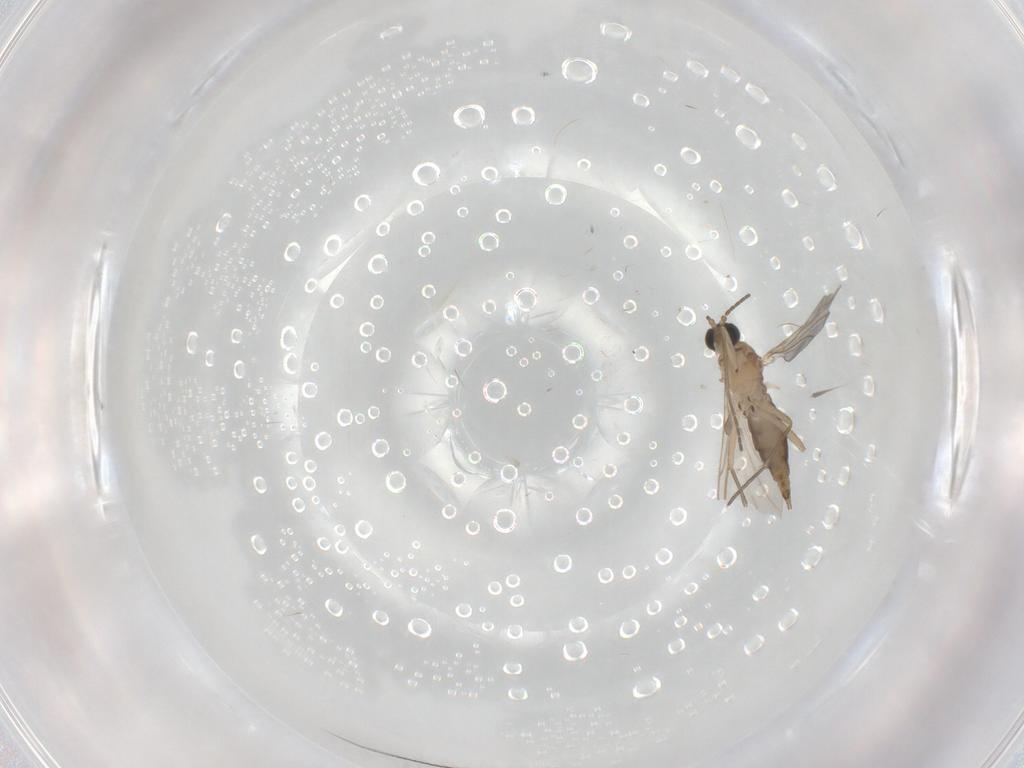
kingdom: Animalia
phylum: Arthropoda
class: Insecta
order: Diptera
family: Sciaridae
